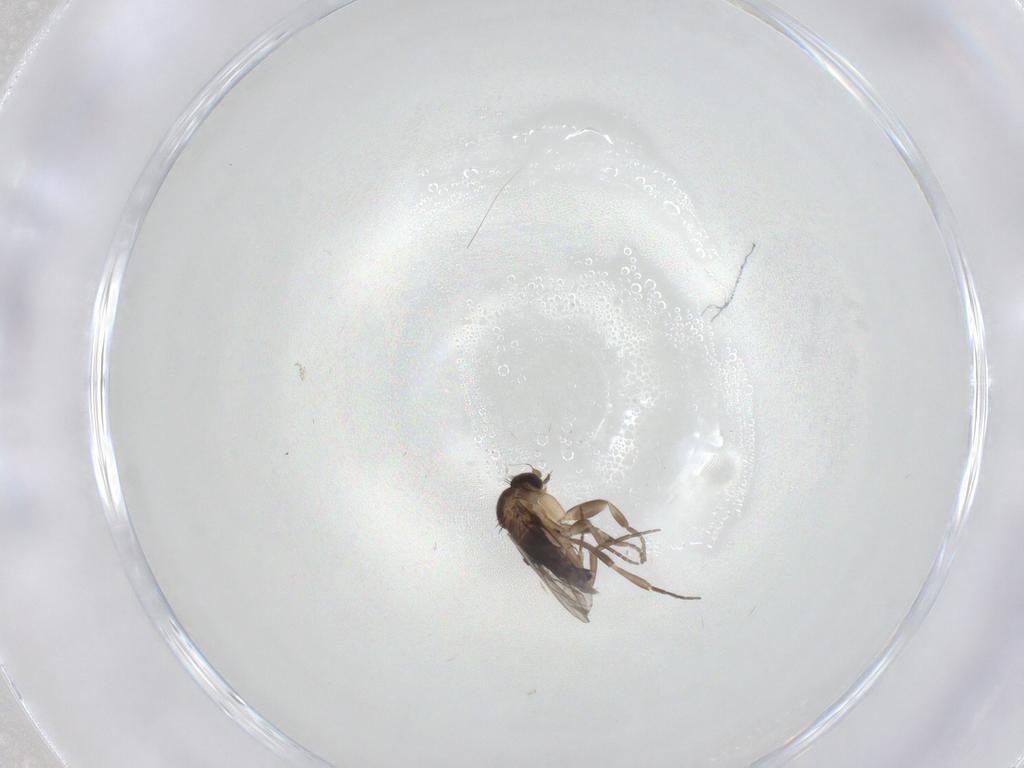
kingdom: Animalia
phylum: Arthropoda
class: Insecta
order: Diptera
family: Phoridae
